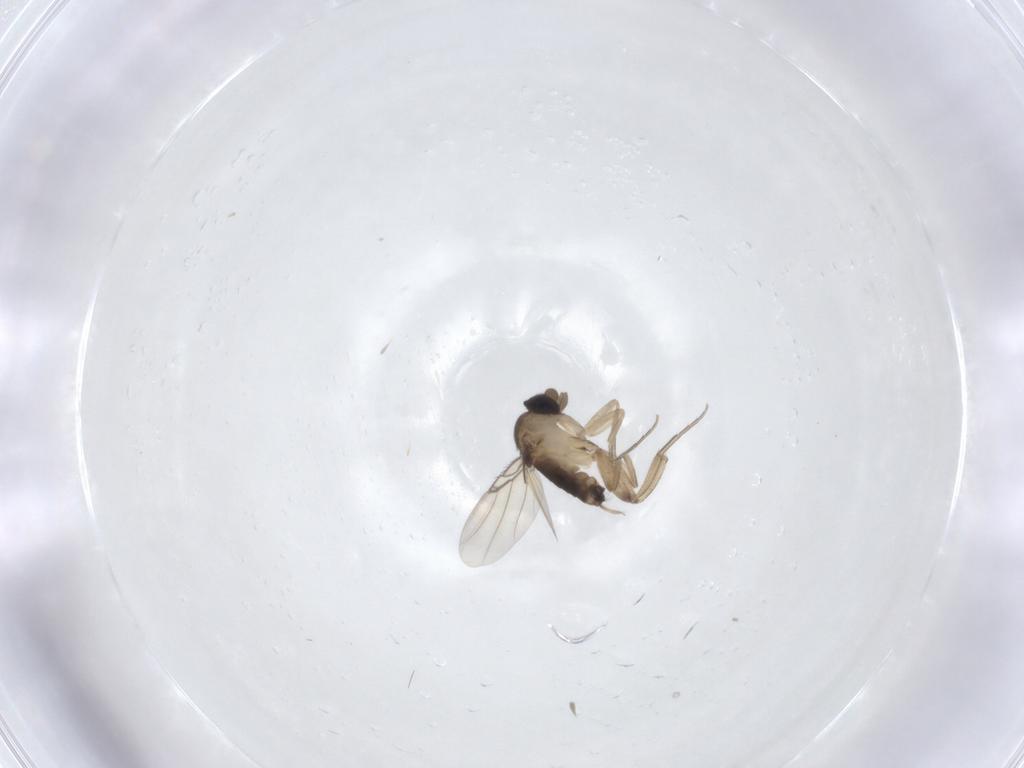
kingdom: Animalia
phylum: Arthropoda
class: Insecta
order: Diptera
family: Phoridae
